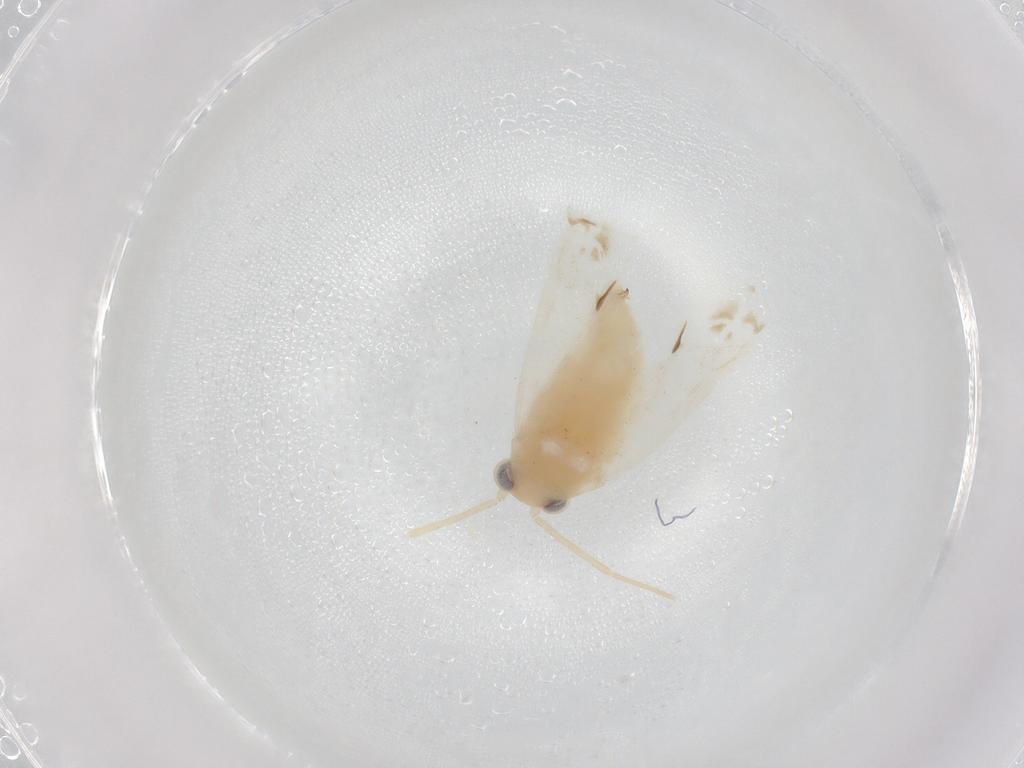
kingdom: Animalia
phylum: Arthropoda
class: Insecta
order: Hemiptera
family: Miridae
